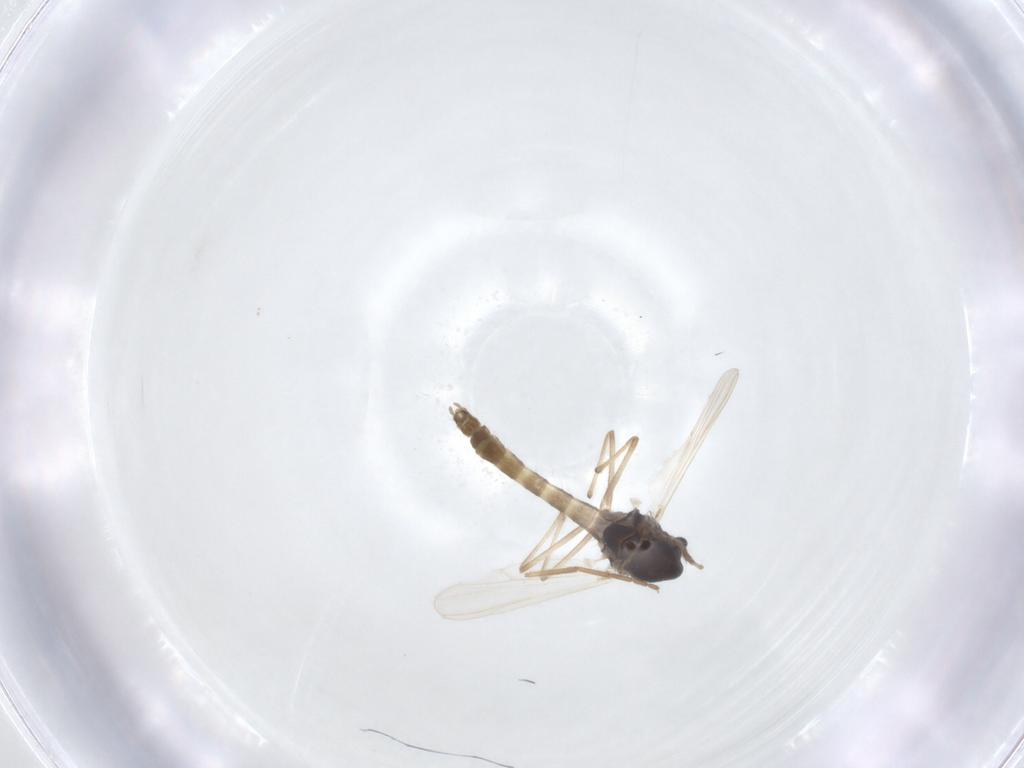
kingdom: Animalia
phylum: Arthropoda
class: Insecta
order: Diptera
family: Chironomidae
